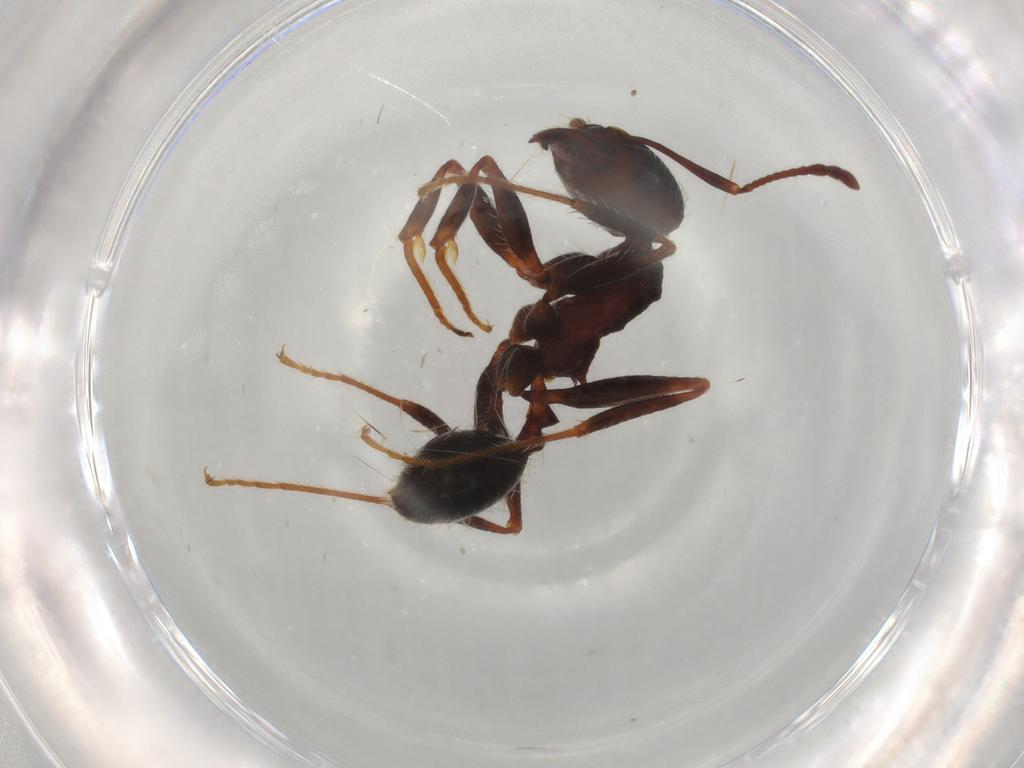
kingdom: Animalia
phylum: Arthropoda
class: Insecta
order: Hymenoptera
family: Formicidae
